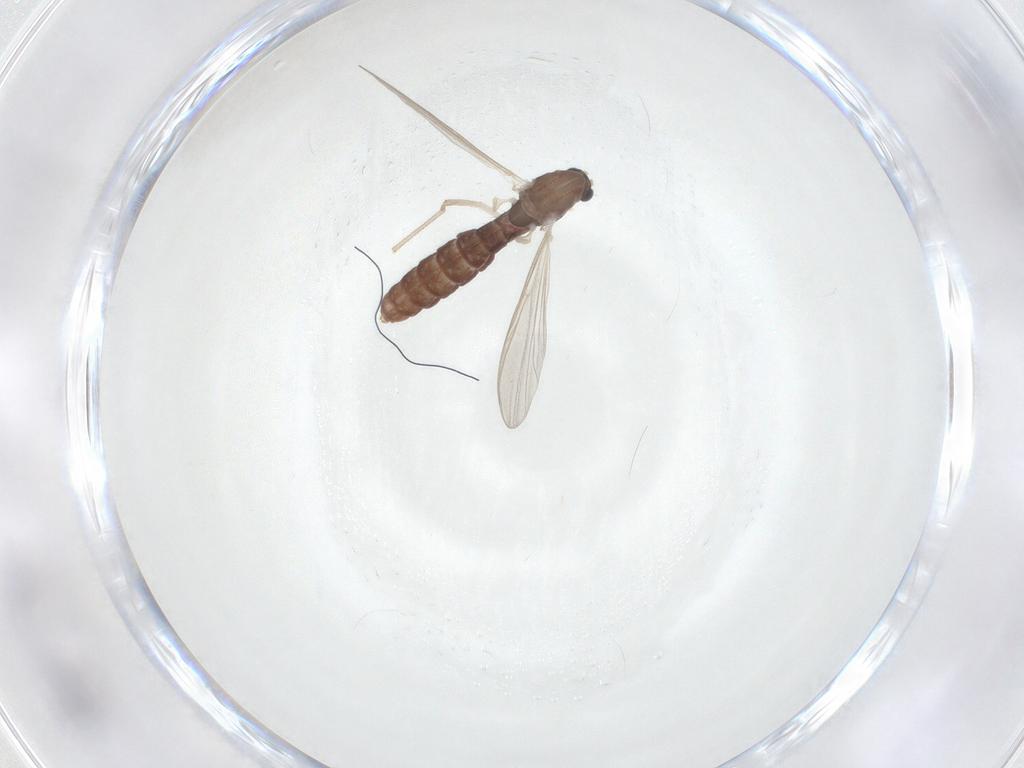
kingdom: Animalia
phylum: Arthropoda
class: Insecta
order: Diptera
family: Chironomidae
